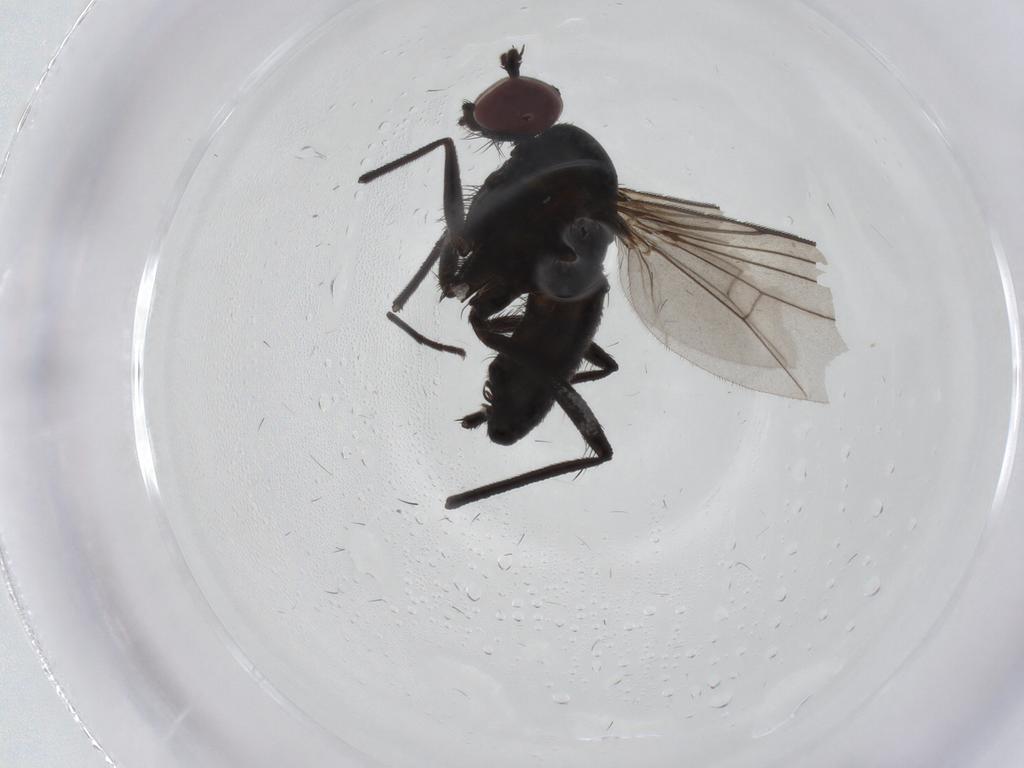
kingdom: Animalia
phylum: Arthropoda
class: Insecta
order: Diptera
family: Dolichopodidae
